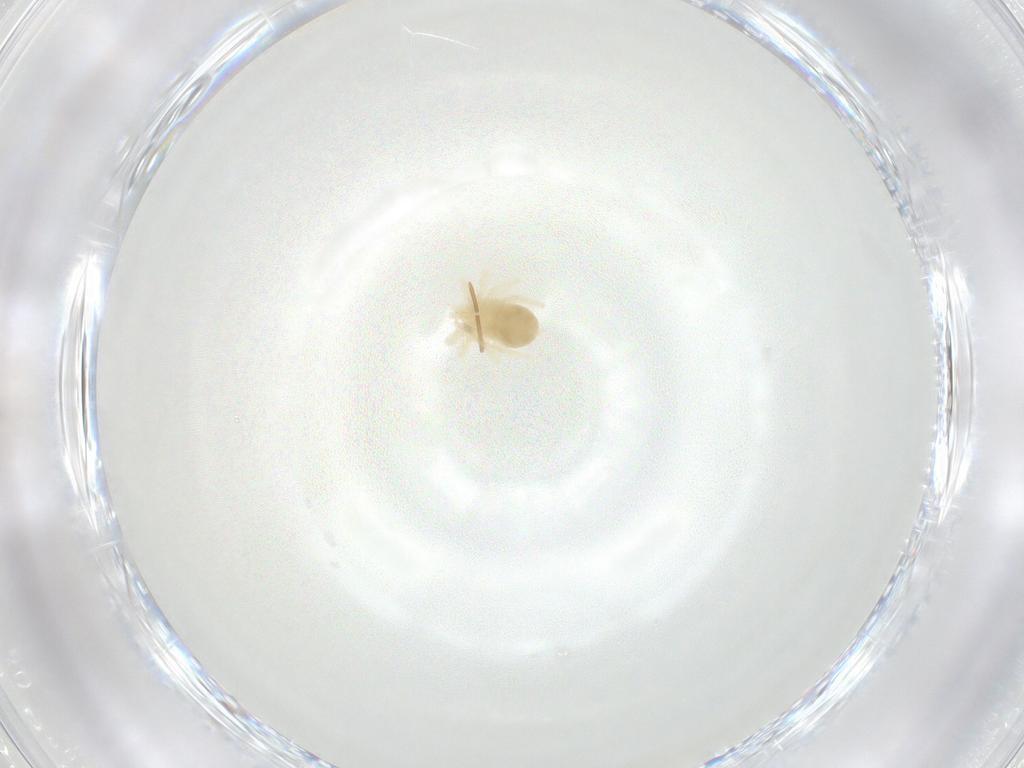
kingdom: Animalia
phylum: Arthropoda
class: Arachnida
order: Trombidiformes
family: Anystidae
